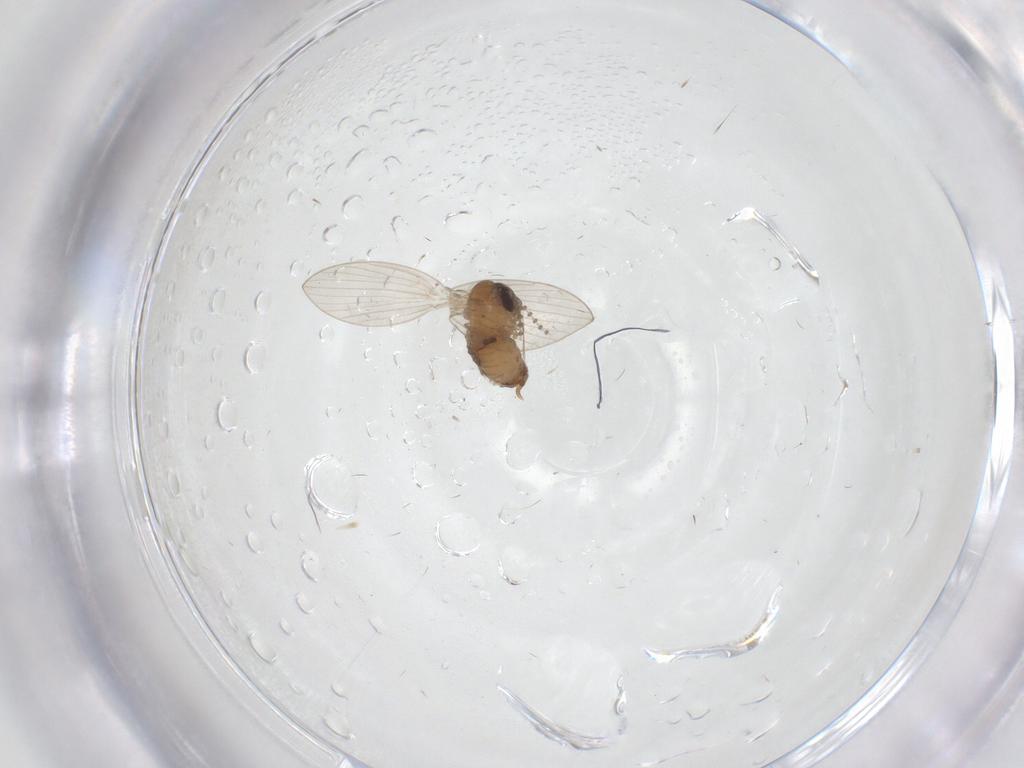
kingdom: Animalia
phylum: Arthropoda
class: Insecta
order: Diptera
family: Psychodidae
